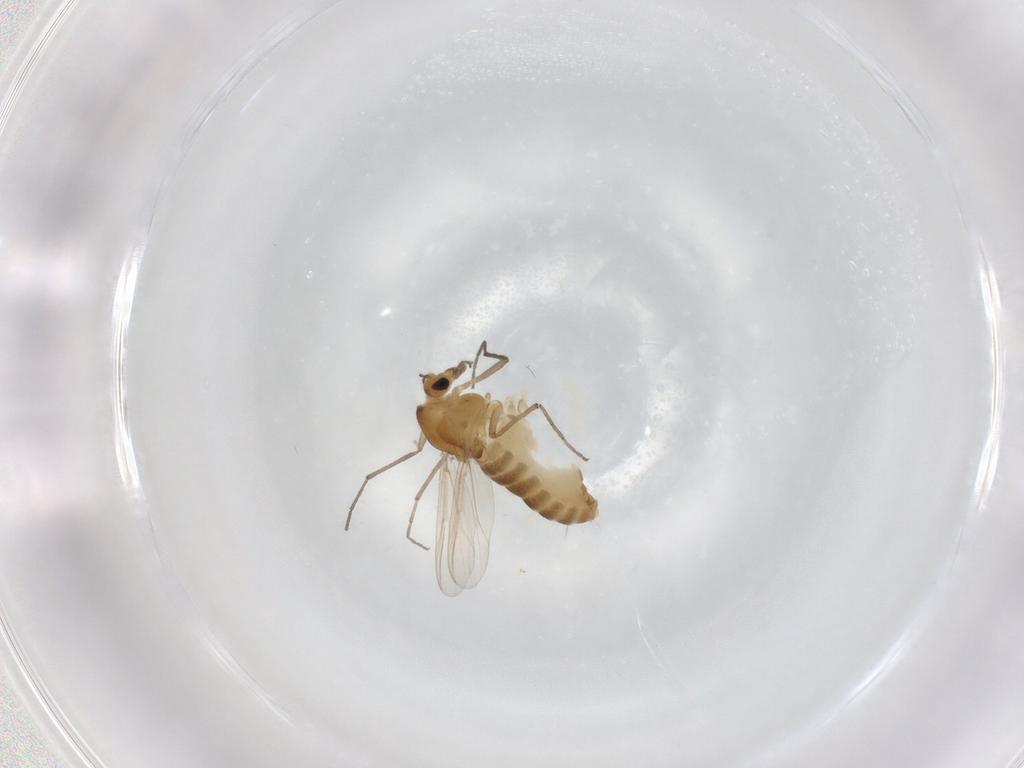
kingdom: Animalia
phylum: Arthropoda
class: Insecta
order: Diptera
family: Chironomidae
